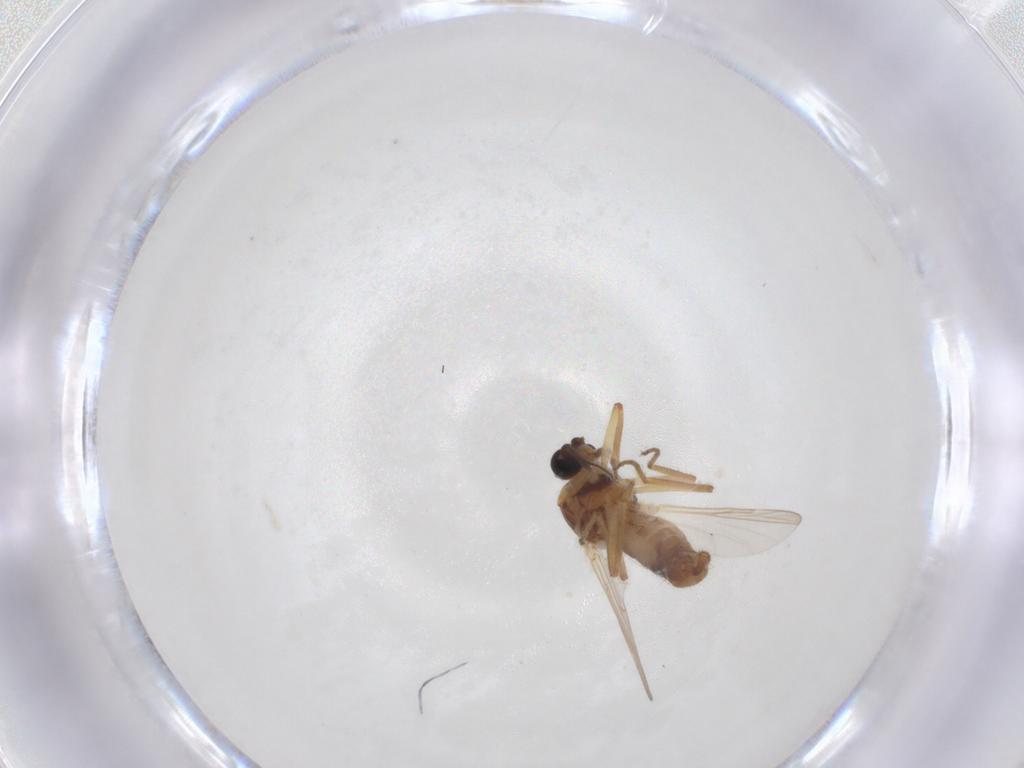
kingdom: Animalia
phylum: Arthropoda
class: Insecta
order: Diptera
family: Chironomidae
